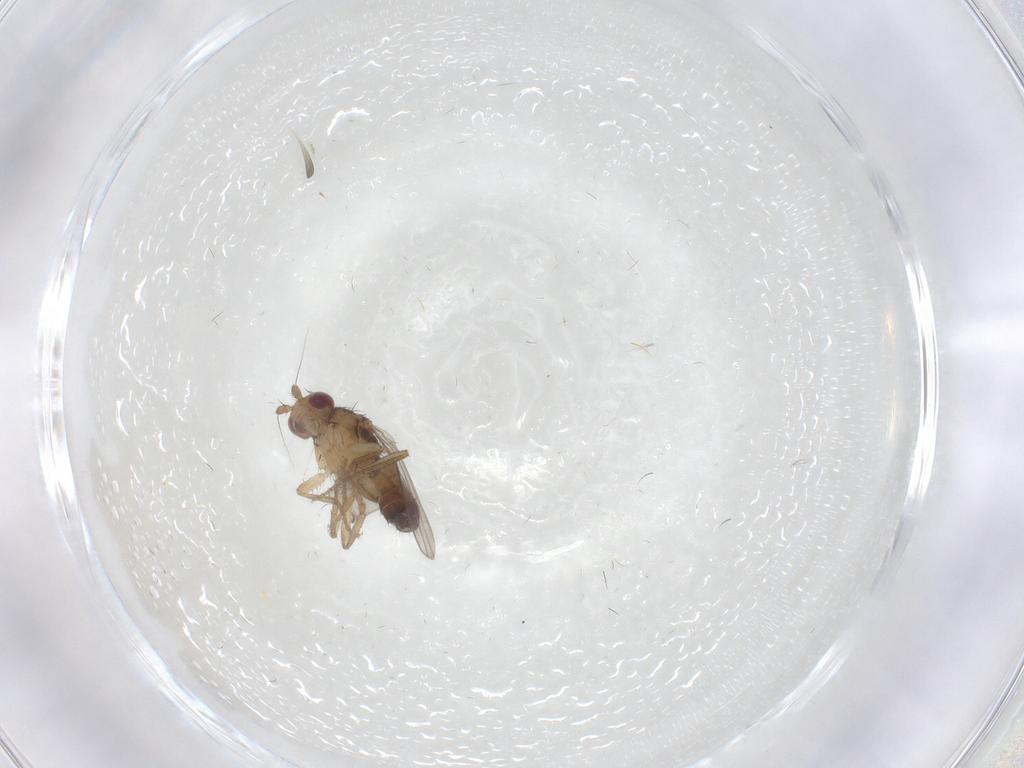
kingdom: Animalia
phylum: Arthropoda
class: Insecta
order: Diptera
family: Sphaeroceridae
